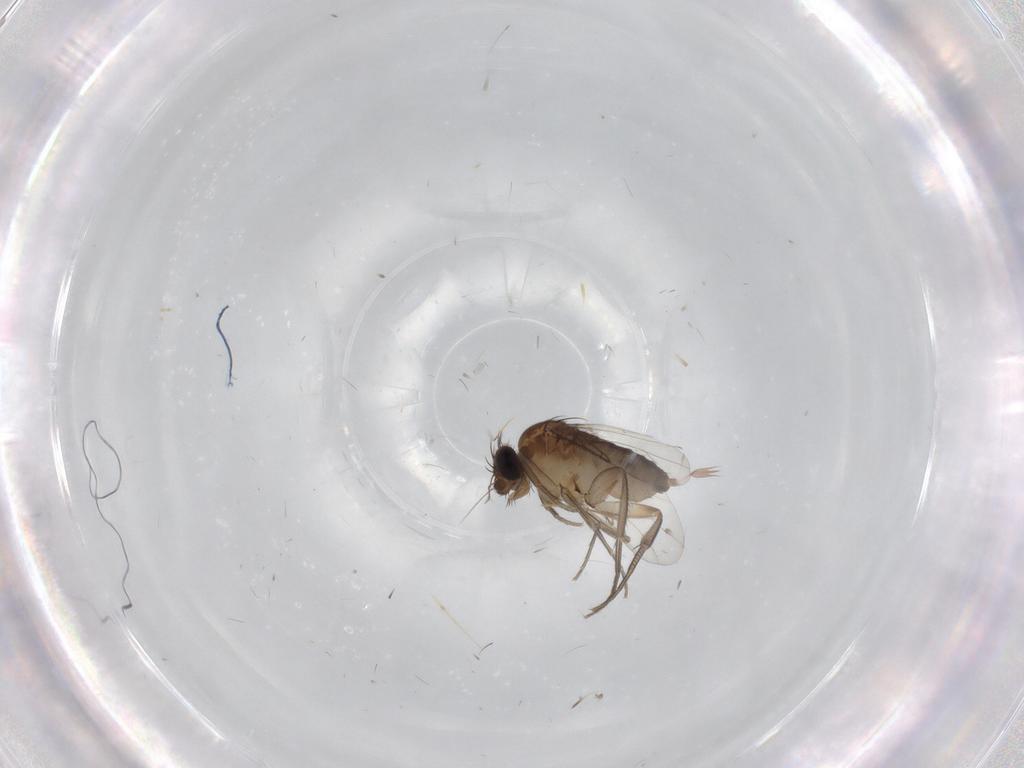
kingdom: Animalia
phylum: Arthropoda
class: Insecta
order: Diptera
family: Phoridae
